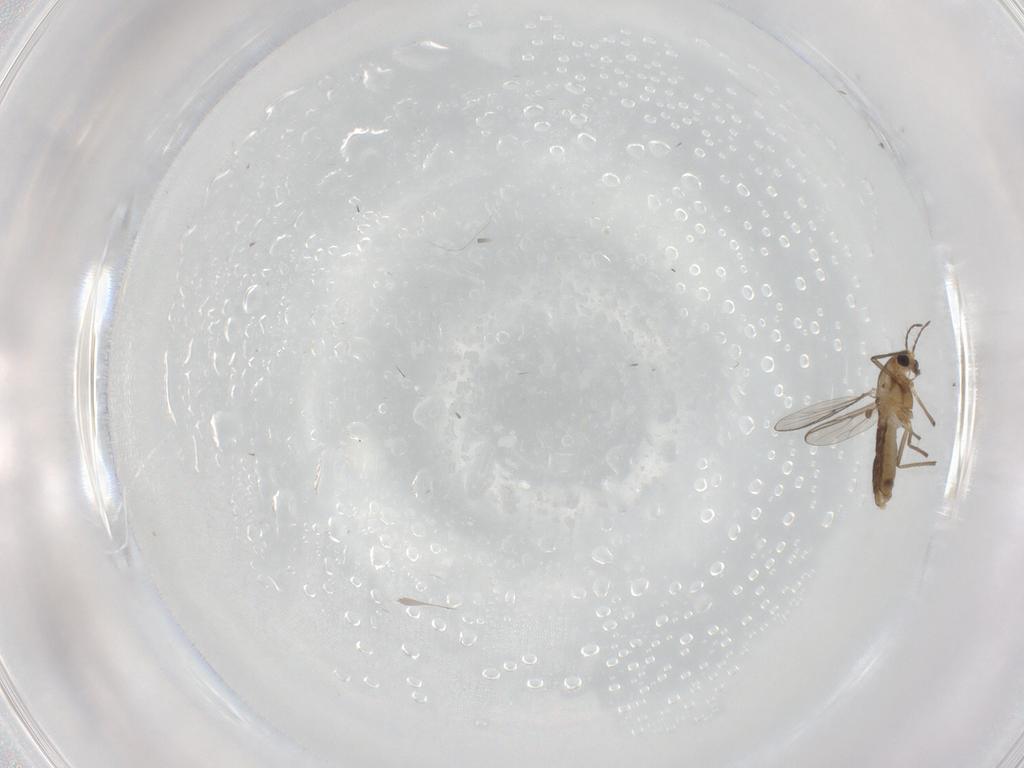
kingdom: Animalia
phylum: Arthropoda
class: Insecta
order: Diptera
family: Chironomidae
